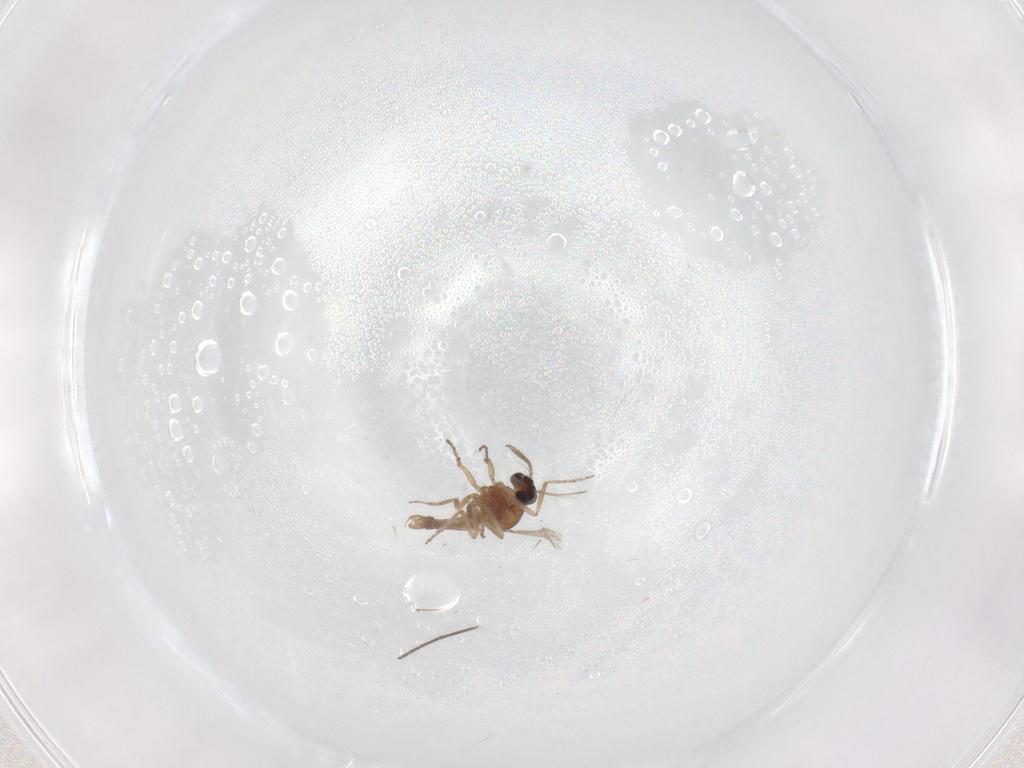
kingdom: Animalia
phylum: Arthropoda
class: Insecta
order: Diptera
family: Chironomidae
